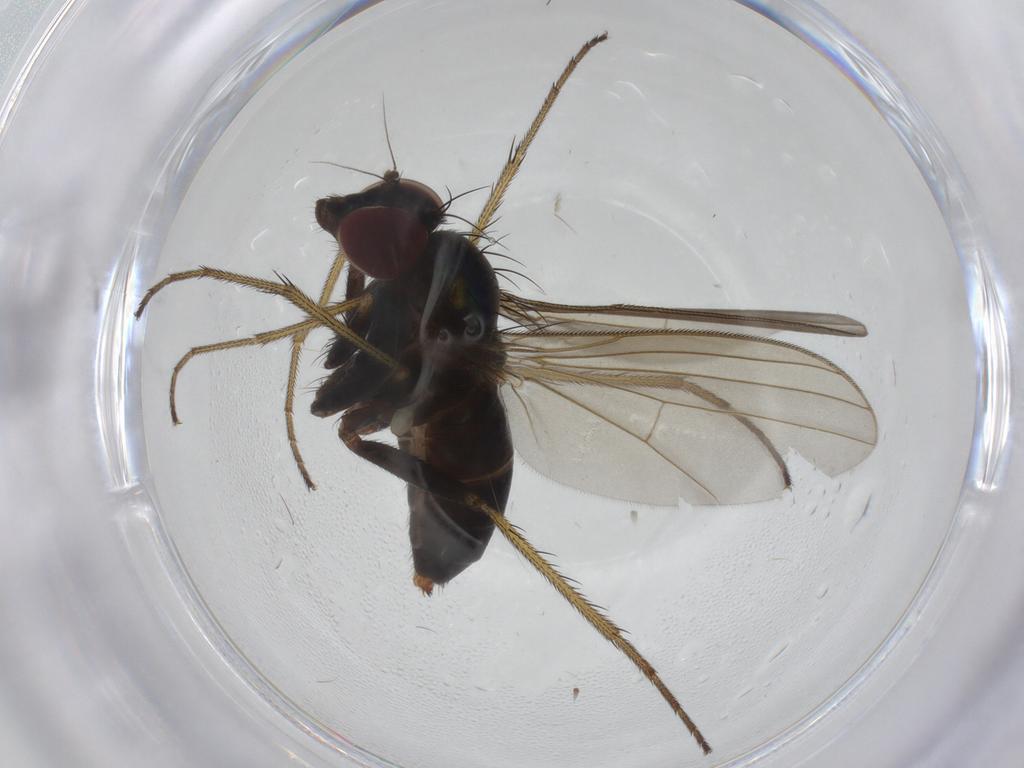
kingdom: Animalia
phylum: Arthropoda
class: Insecta
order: Diptera
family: Dolichopodidae
